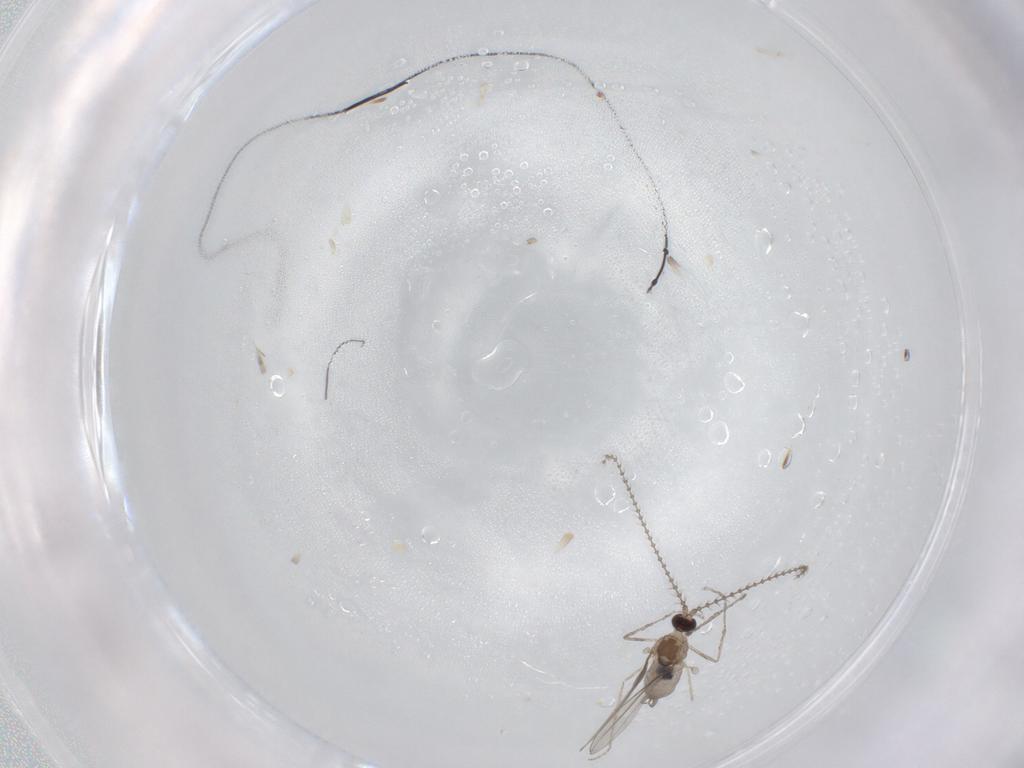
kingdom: Animalia
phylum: Arthropoda
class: Insecta
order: Diptera
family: Cecidomyiidae
